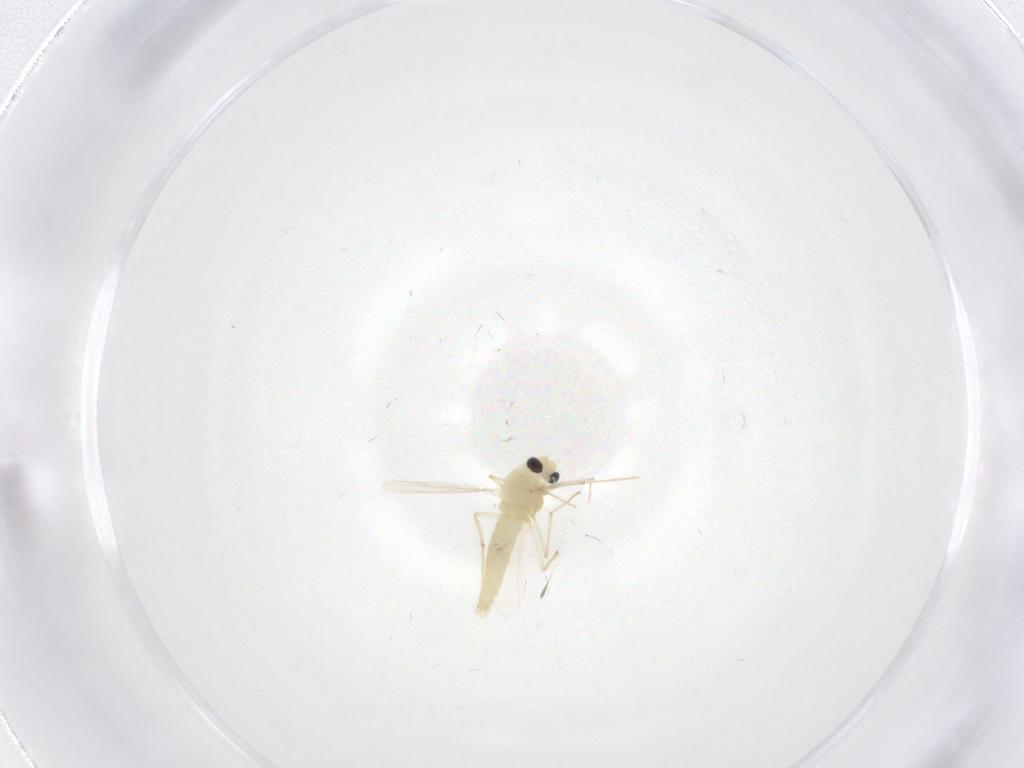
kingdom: Animalia
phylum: Arthropoda
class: Insecta
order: Diptera
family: Chironomidae
